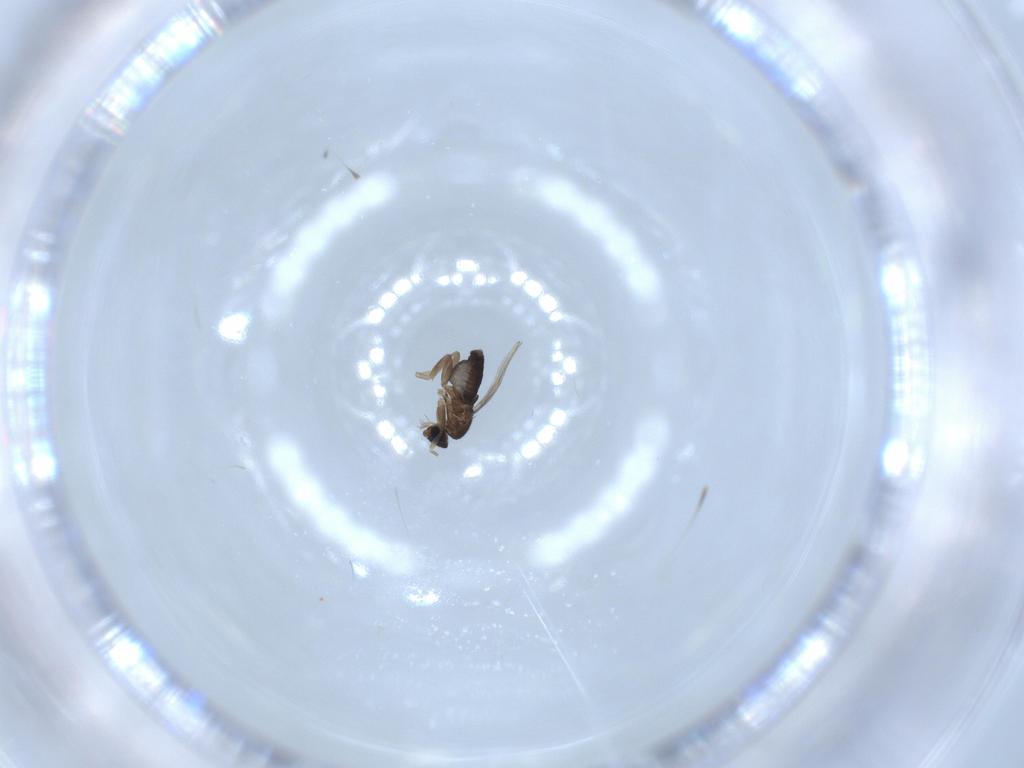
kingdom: Animalia
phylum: Arthropoda
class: Insecta
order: Diptera
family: Phoridae
